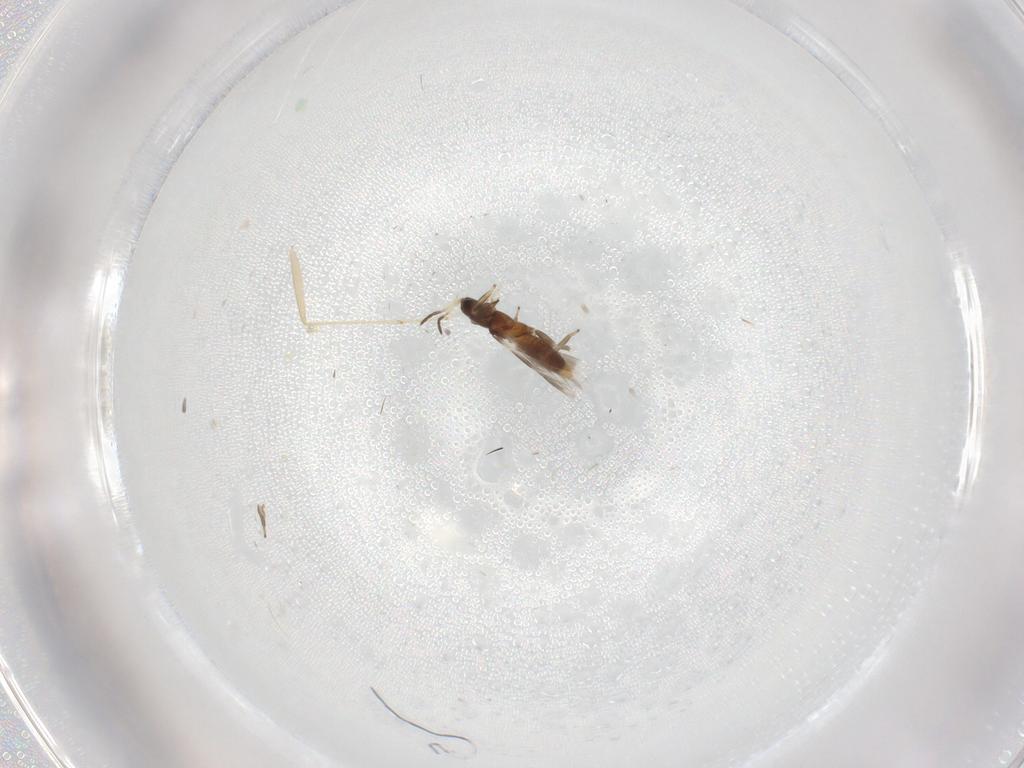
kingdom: Animalia
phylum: Arthropoda
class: Insecta
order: Thysanoptera
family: Aeolothripidae
